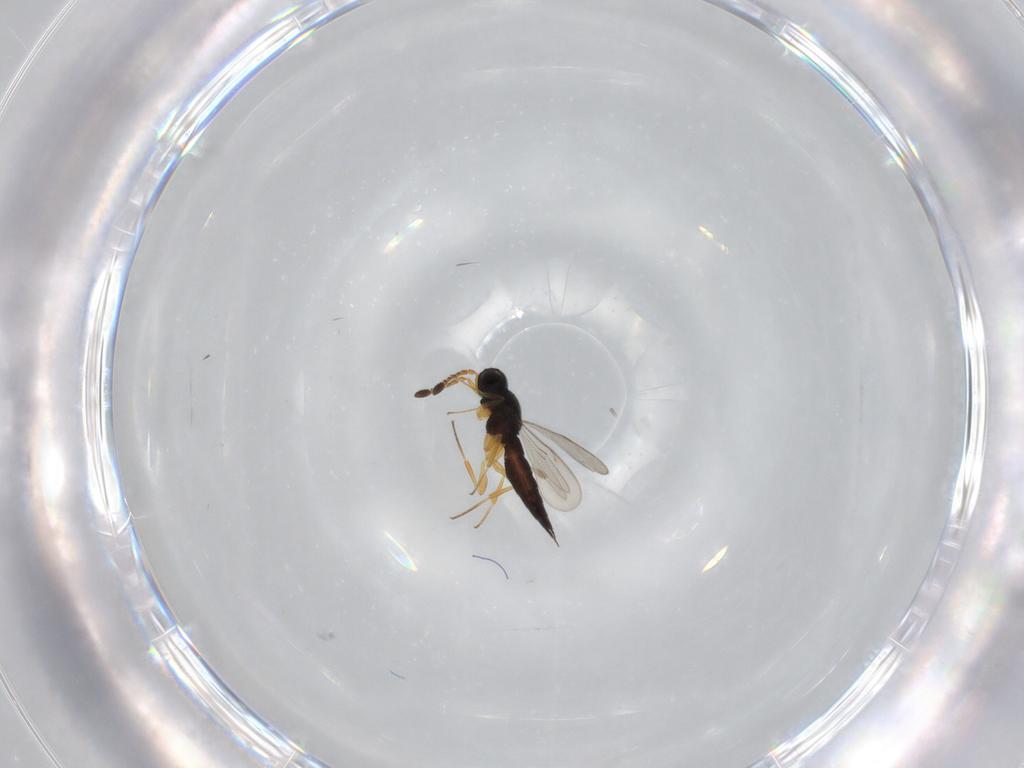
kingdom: Animalia
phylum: Arthropoda
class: Insecta
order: Hymenoptera
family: Scelionidae
